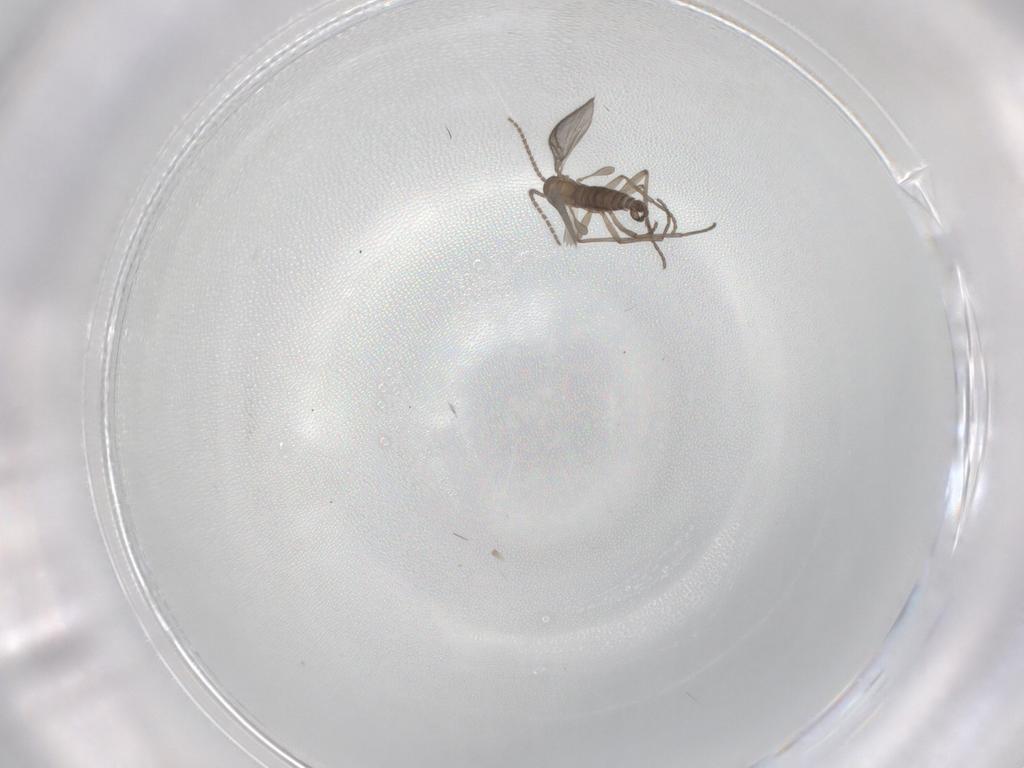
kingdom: Animalia
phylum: Arthropoda
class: Insecta
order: Diptera
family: Sciaridae
